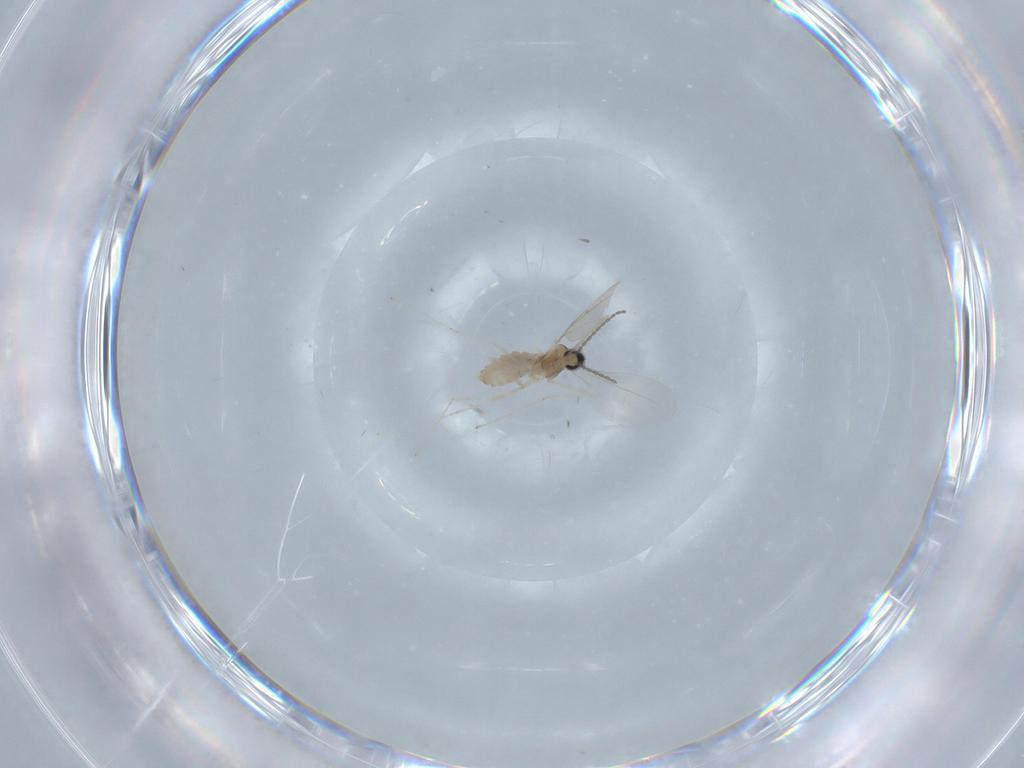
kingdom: Animalia
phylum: Arthropoda
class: Insecta
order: Diptera
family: Cecidomyiidae
